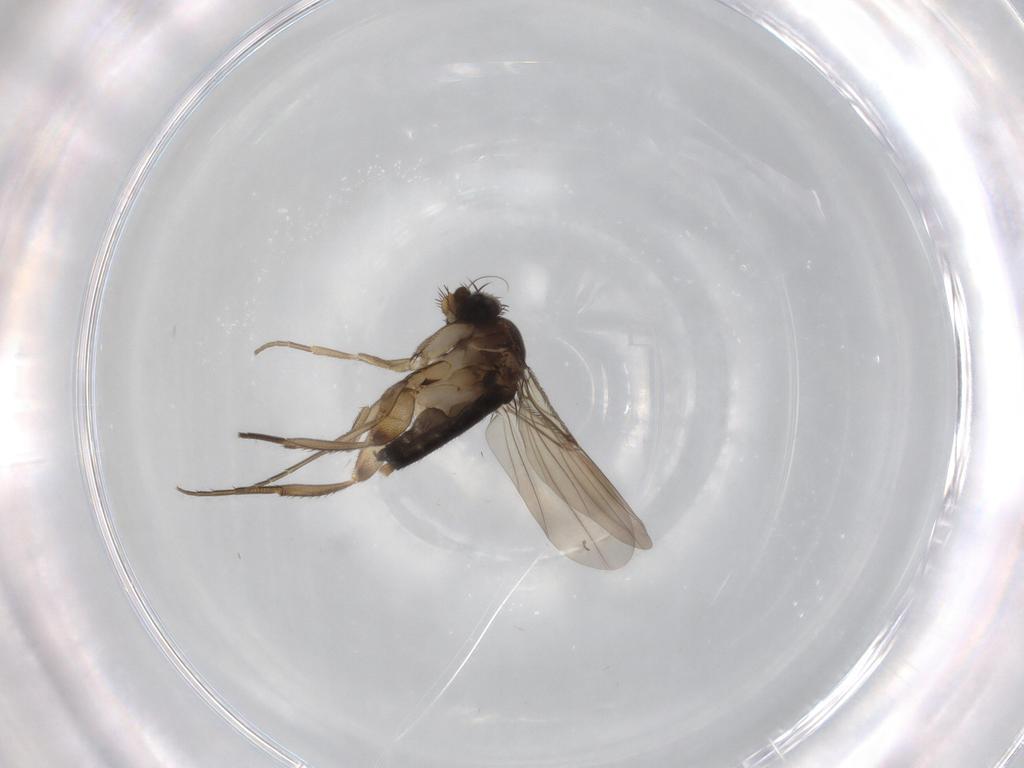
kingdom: Animalia
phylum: Arthropoda
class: Insecta
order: Diptera
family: Phoridae
